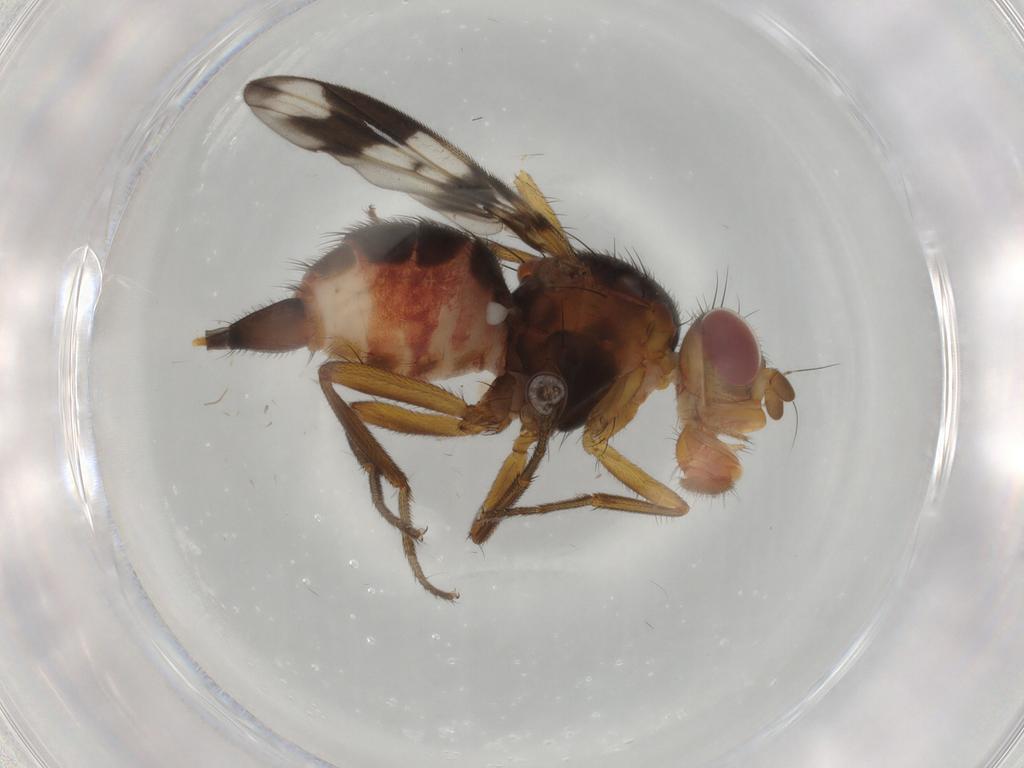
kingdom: Animalia
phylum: Arthropoda
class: Insecta
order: Diptera
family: Richardiidae
